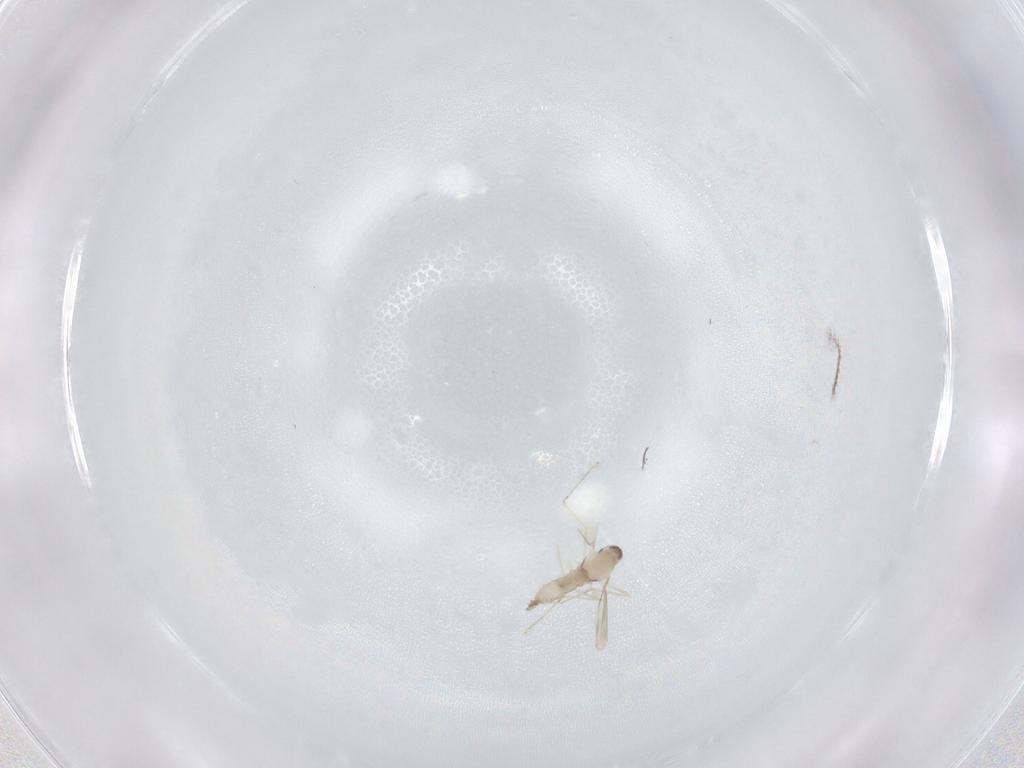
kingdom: Animalia
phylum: Arthropoda
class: Insecta
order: Diptera
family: Cecidomyiidae
